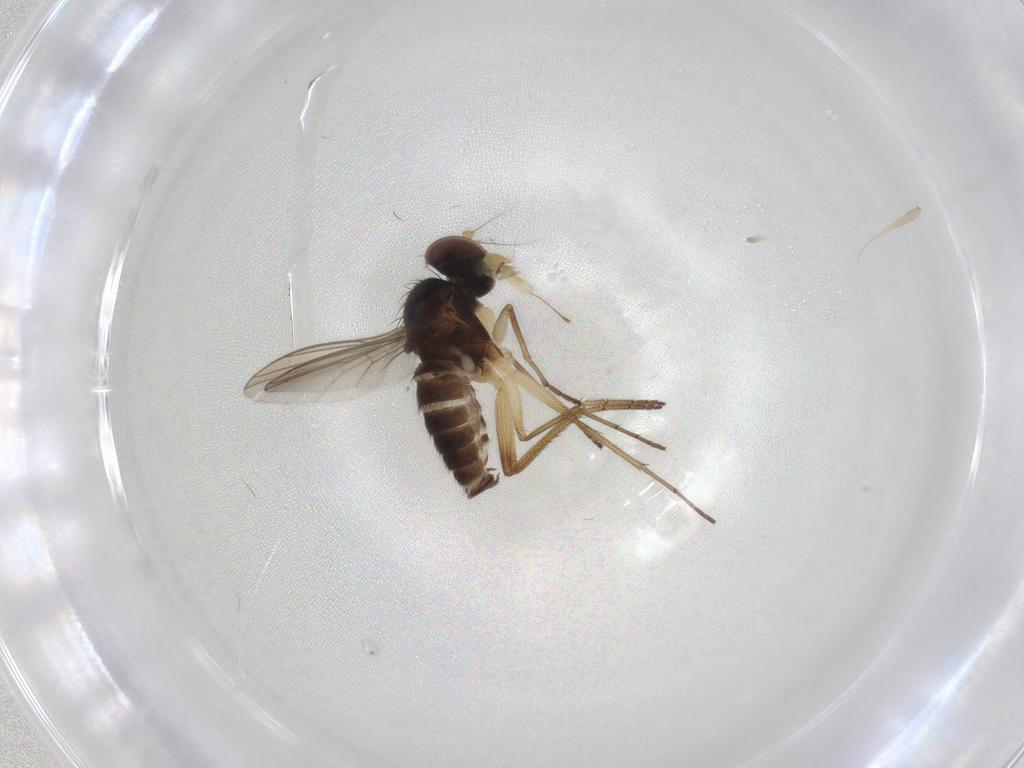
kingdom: Animalia
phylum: Arthropoda
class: Insecta
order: Diptera
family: Dolichopodidae
